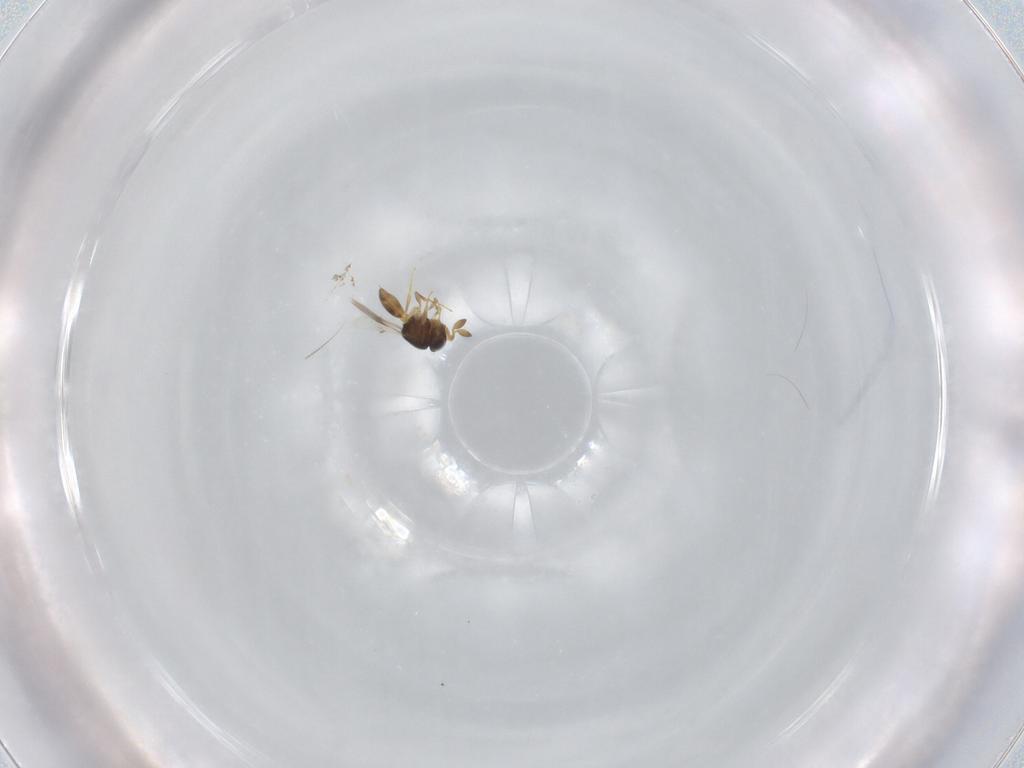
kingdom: Animalia
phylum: Arthropoda
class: Insecta
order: Hymenoptera
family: Scelionidae
